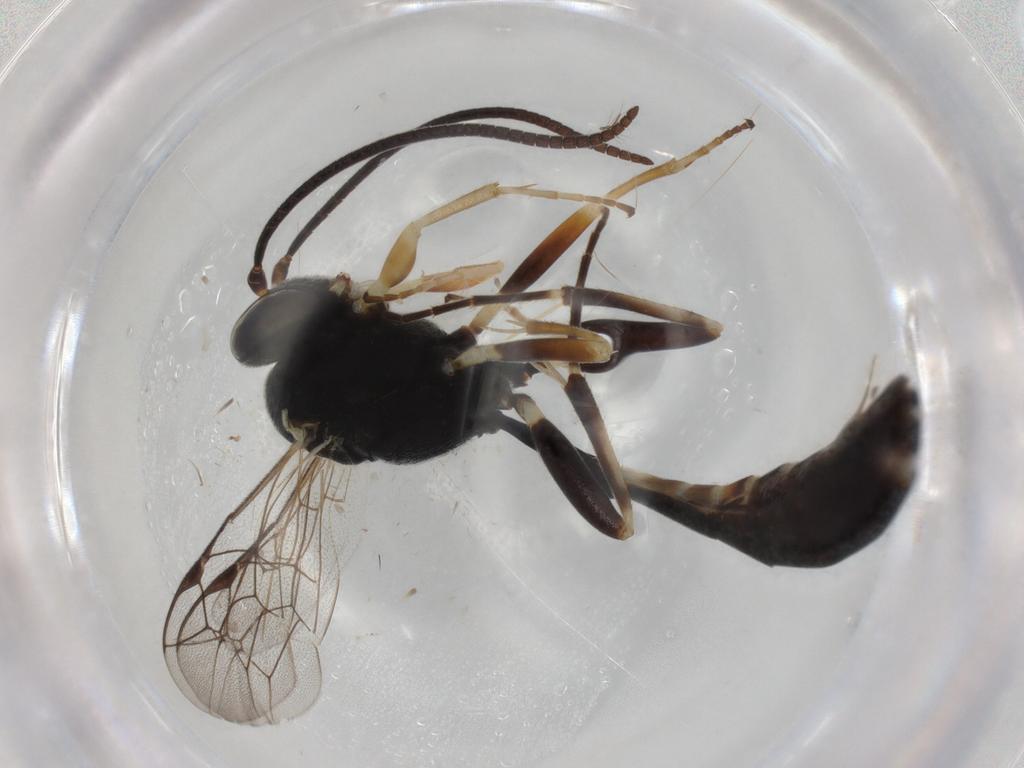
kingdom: Animalia
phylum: Arthropoda
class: Insecta
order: Hymenoptera
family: Ichneumonidae
